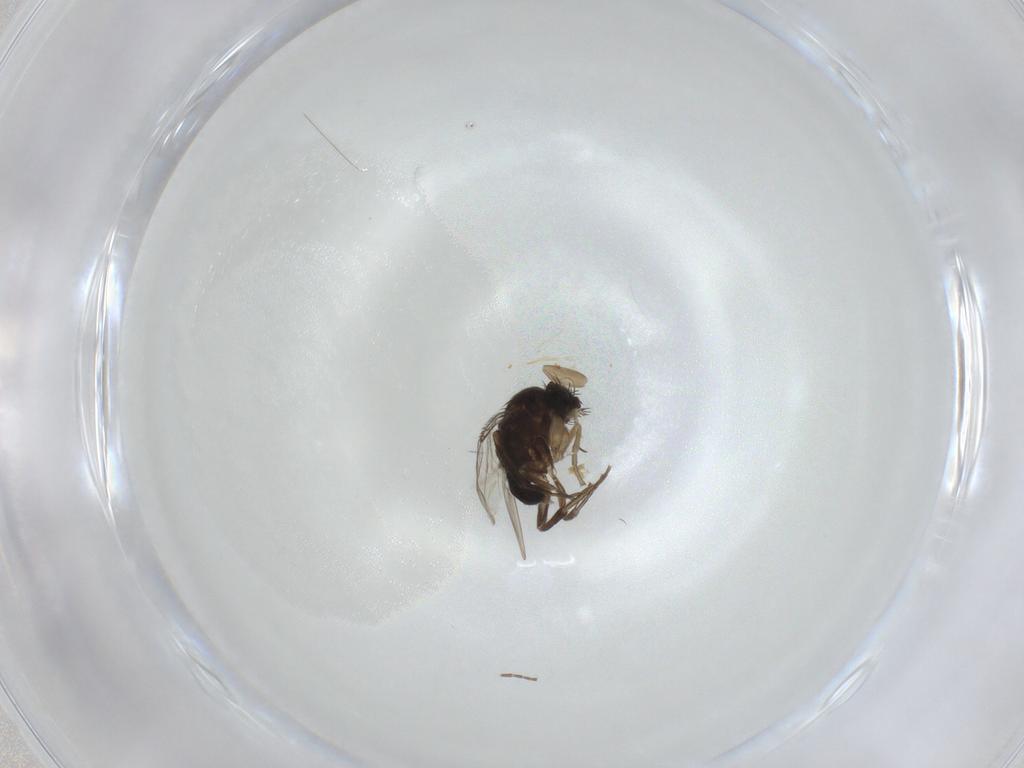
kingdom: Animalia
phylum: Arthropoda
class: Insecta
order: Diptera
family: Phoridae
